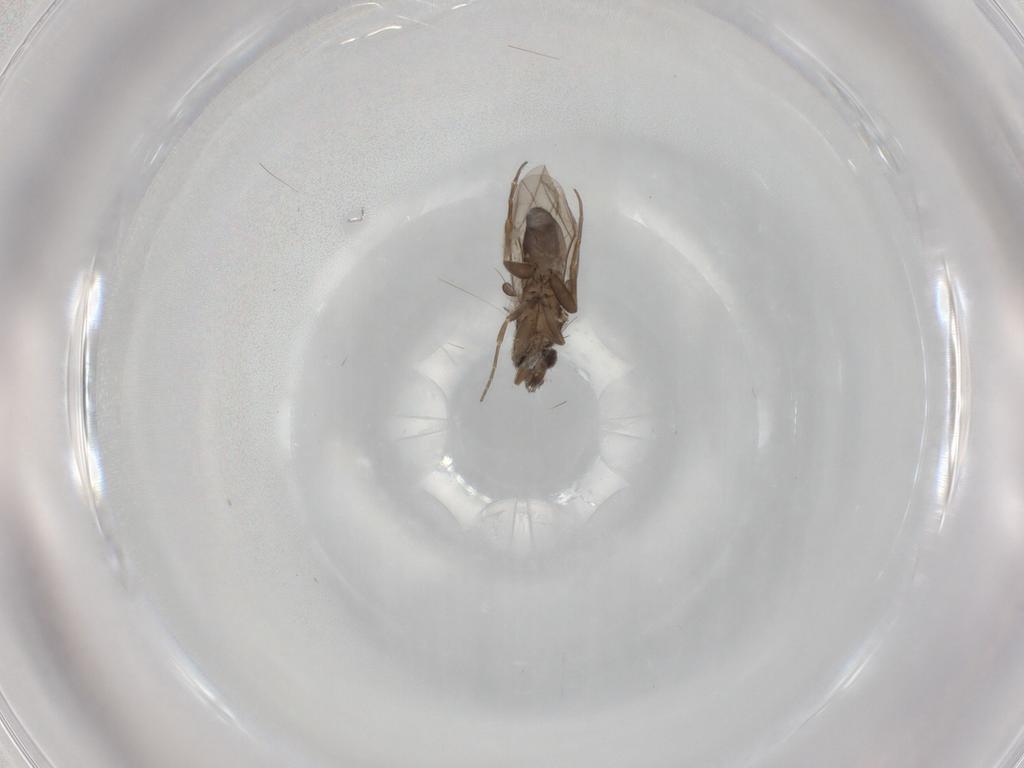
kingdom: Animalia
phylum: Arthropoda
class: Insecta
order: Diptera
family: Phoridae
